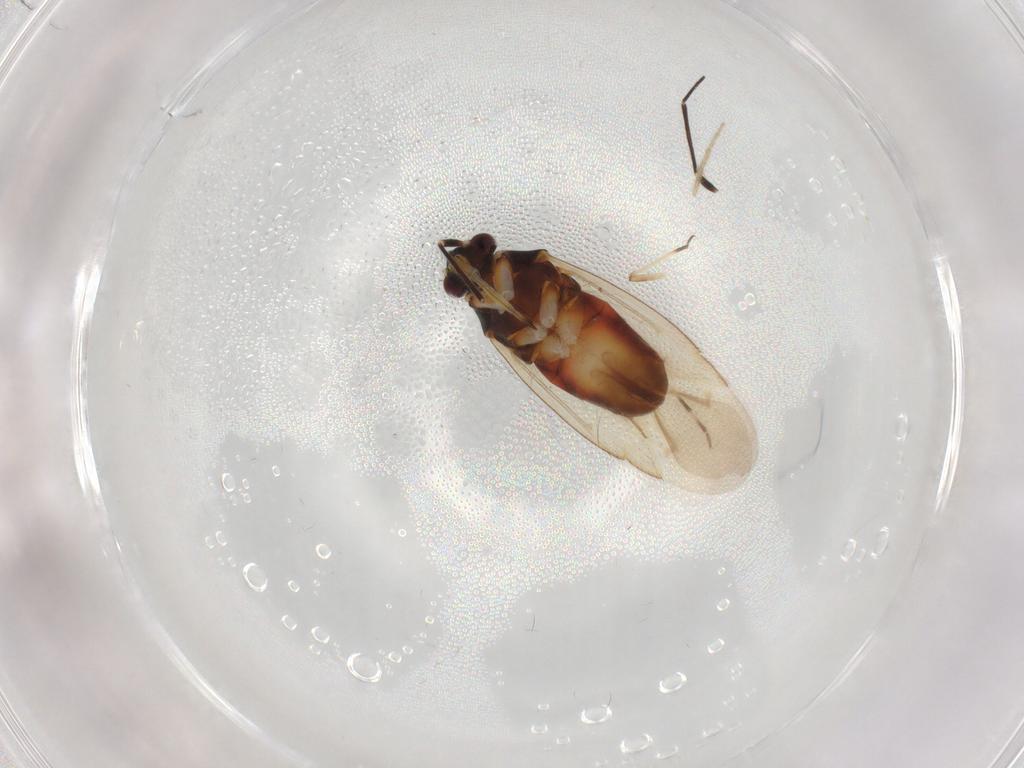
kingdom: Animalia
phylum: Arthropoda
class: Insecta
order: Hemiptera
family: Miridae
